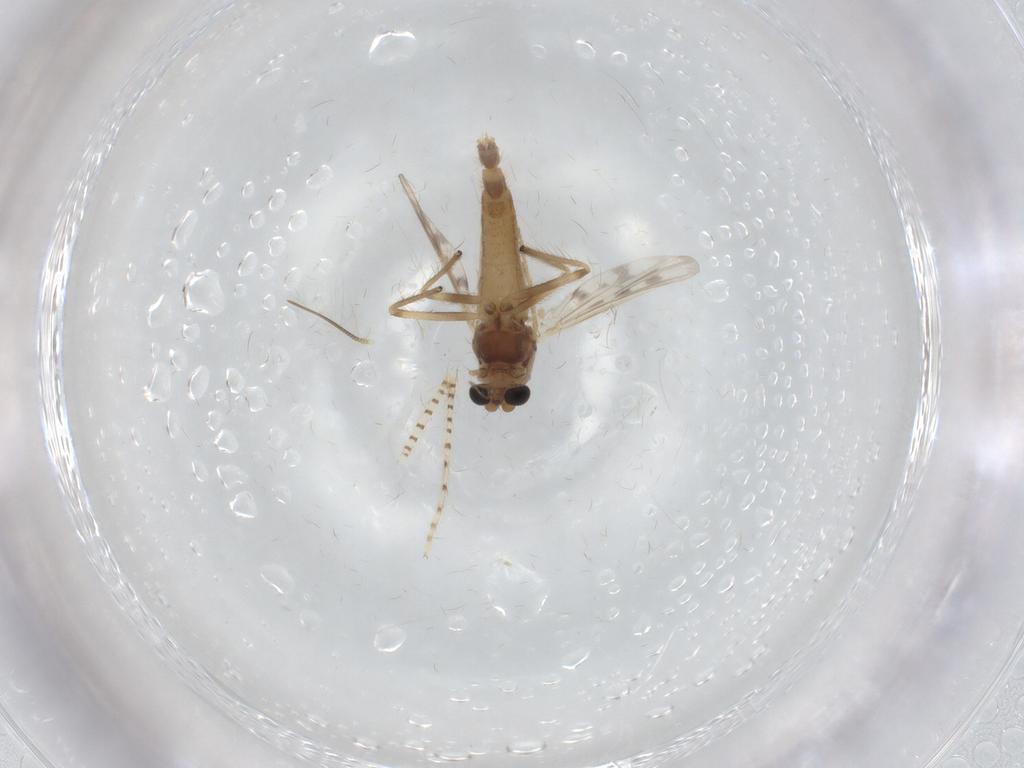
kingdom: Animalia
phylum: Arthropoda
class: Insecta
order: Diptera
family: Chironomidae
